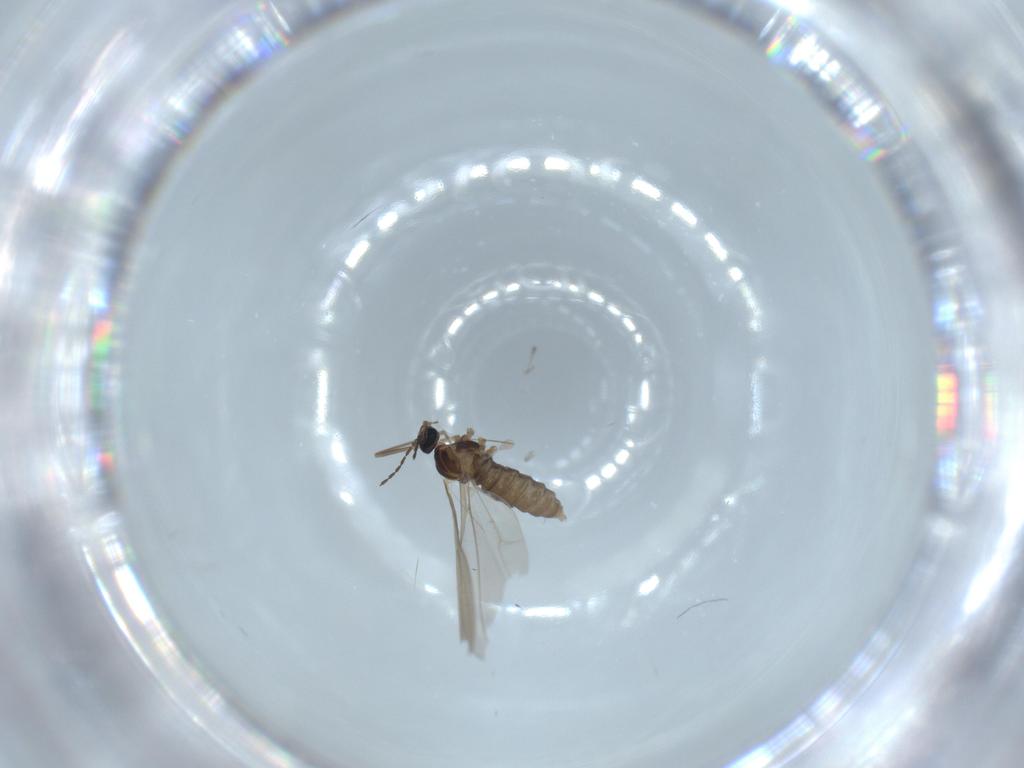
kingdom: Animalia
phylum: Arthropoda
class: Insecta
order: Diptera
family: Cecidomyiidae
